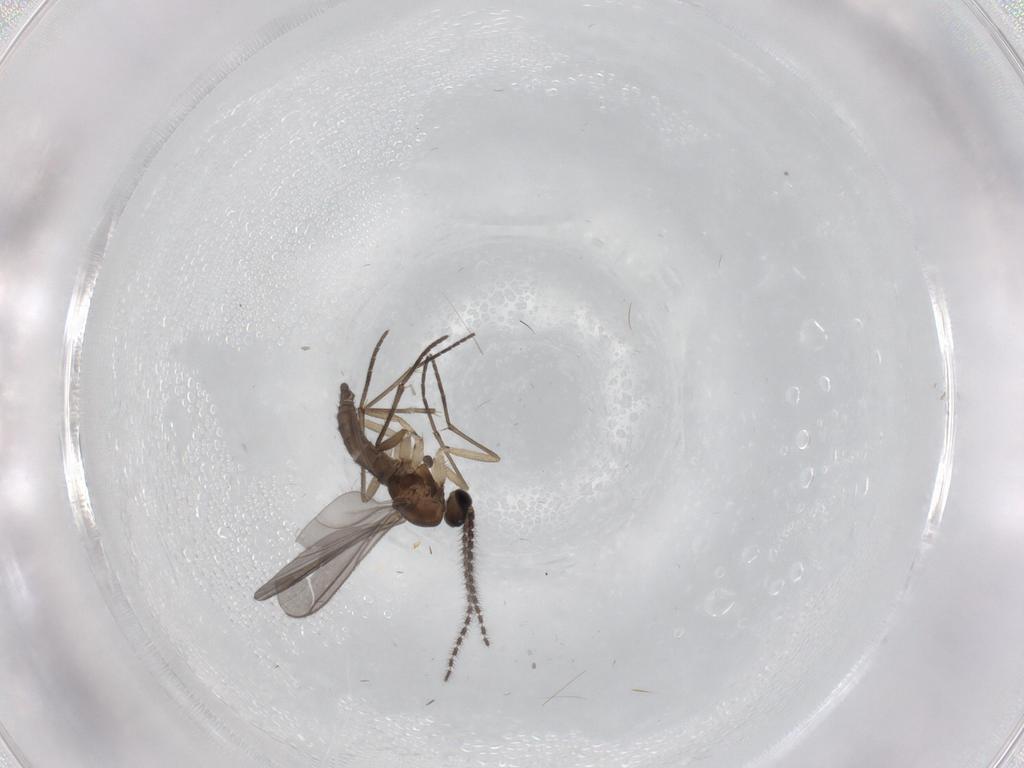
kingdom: Animalia
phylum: Arthropoda
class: Insecta
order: Diptera
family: Sciaridae
